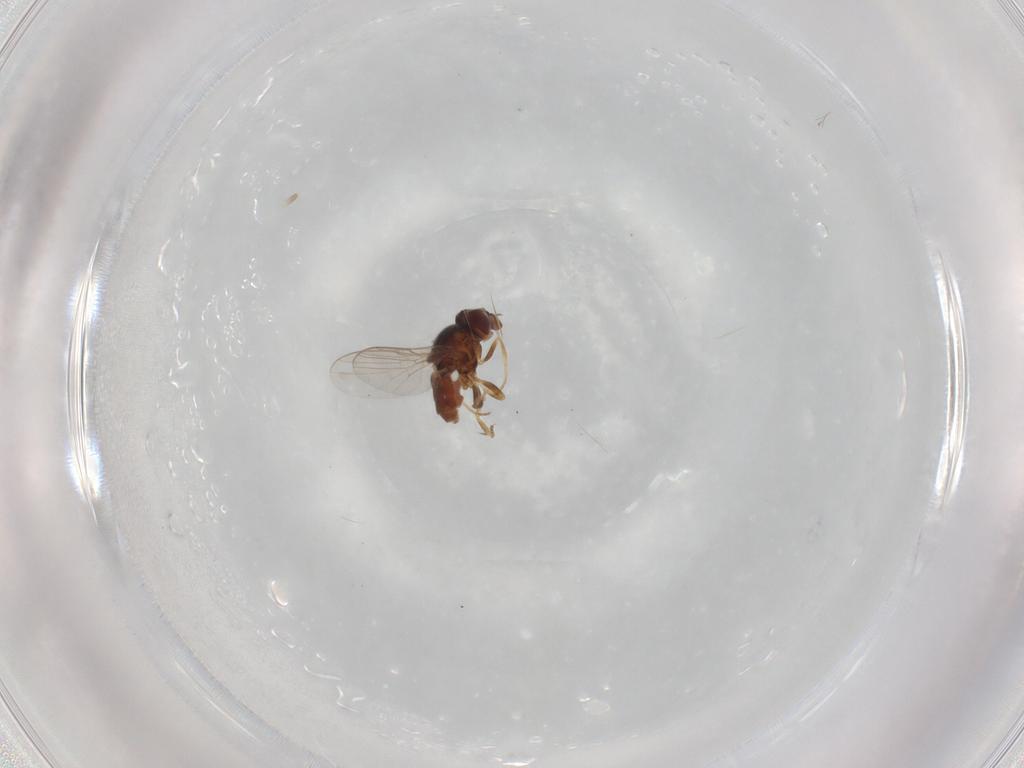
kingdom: Animalia
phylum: Arthropoda
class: Insecta
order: Diptera
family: Chloropidae
